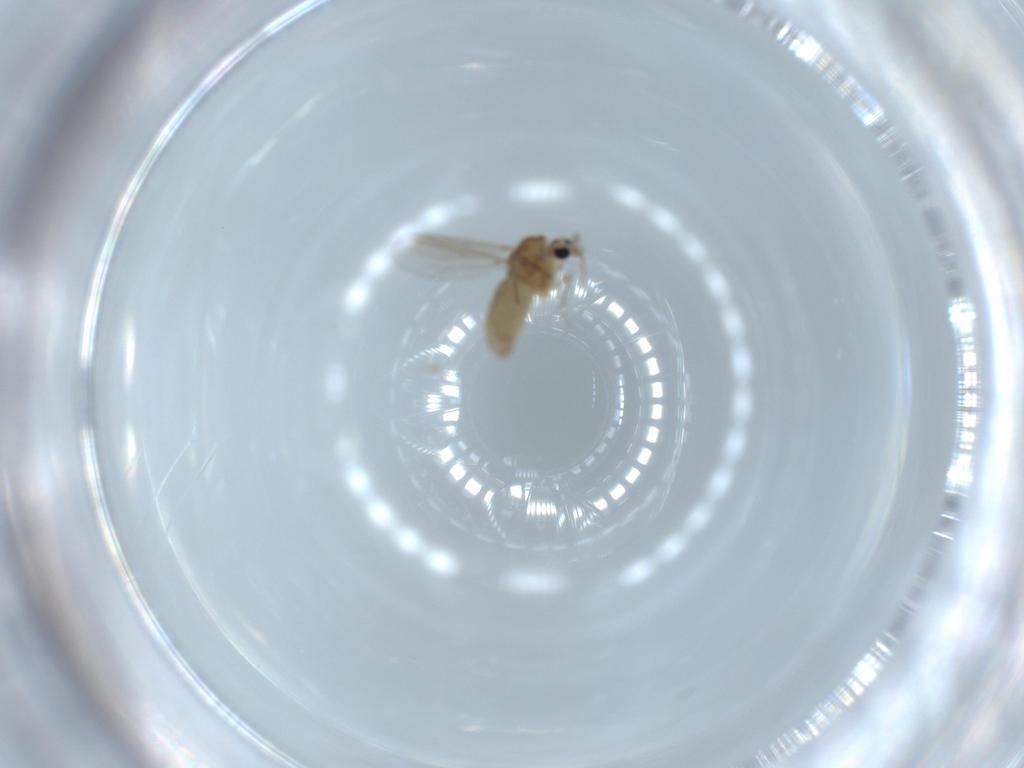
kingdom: Animalia
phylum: Arthropoda
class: Insecta
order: Diptera
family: Chironomidae
